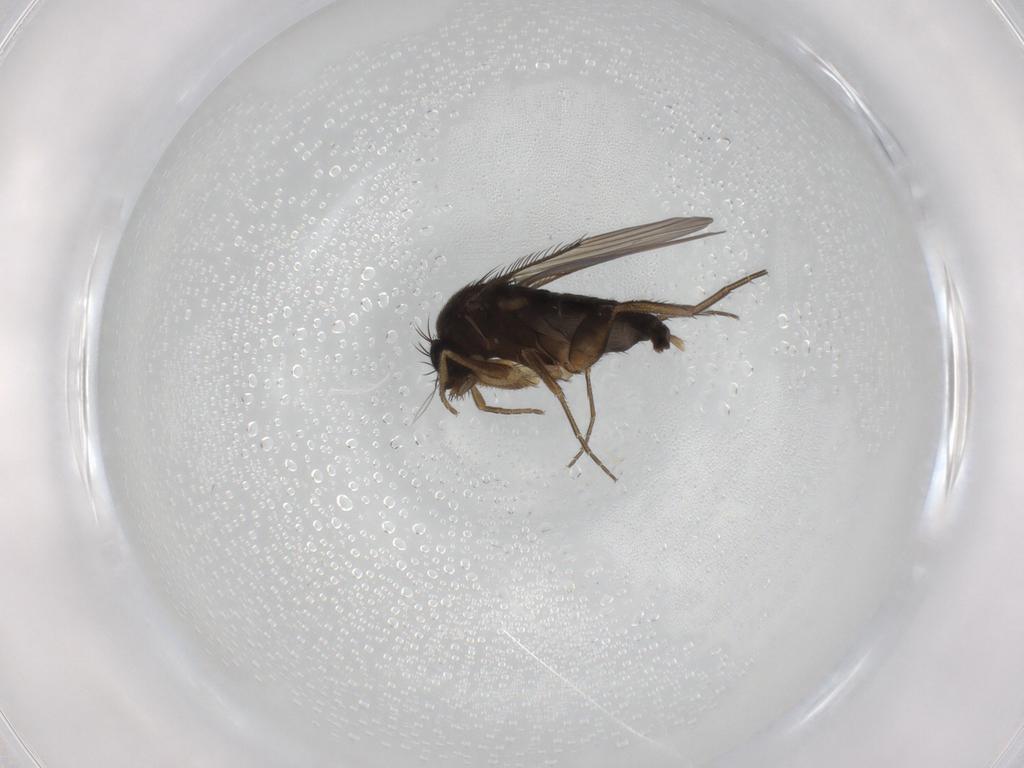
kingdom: Animalia
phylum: Arthropoda
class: Insecta
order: Diptera
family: Phoridae
